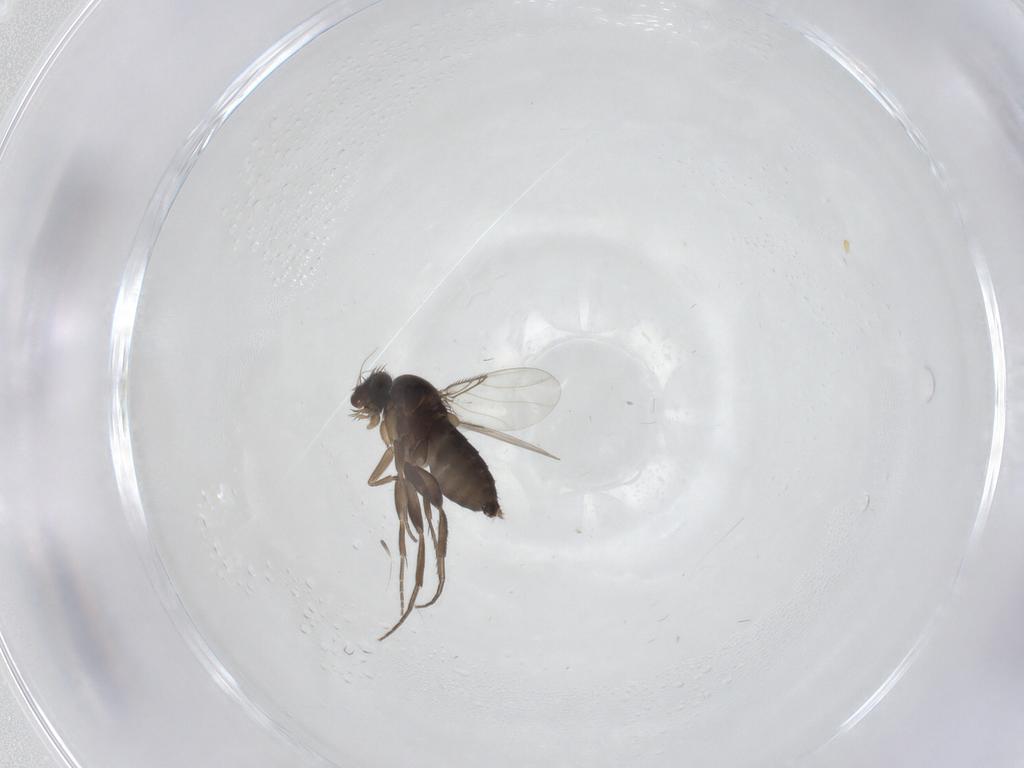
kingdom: Animalia
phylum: Arthropoda
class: Insecta
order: Diptera
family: Phoridae
